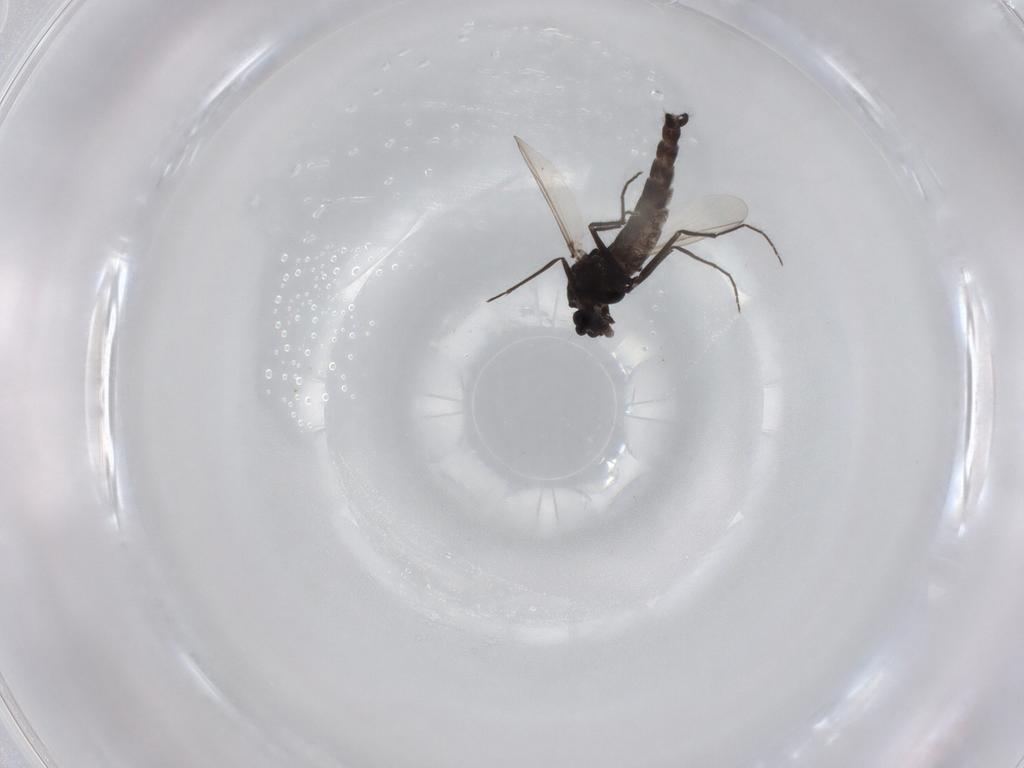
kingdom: Animalia
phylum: Arthropoda
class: Insecta
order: Diptera
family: Chironomidae
